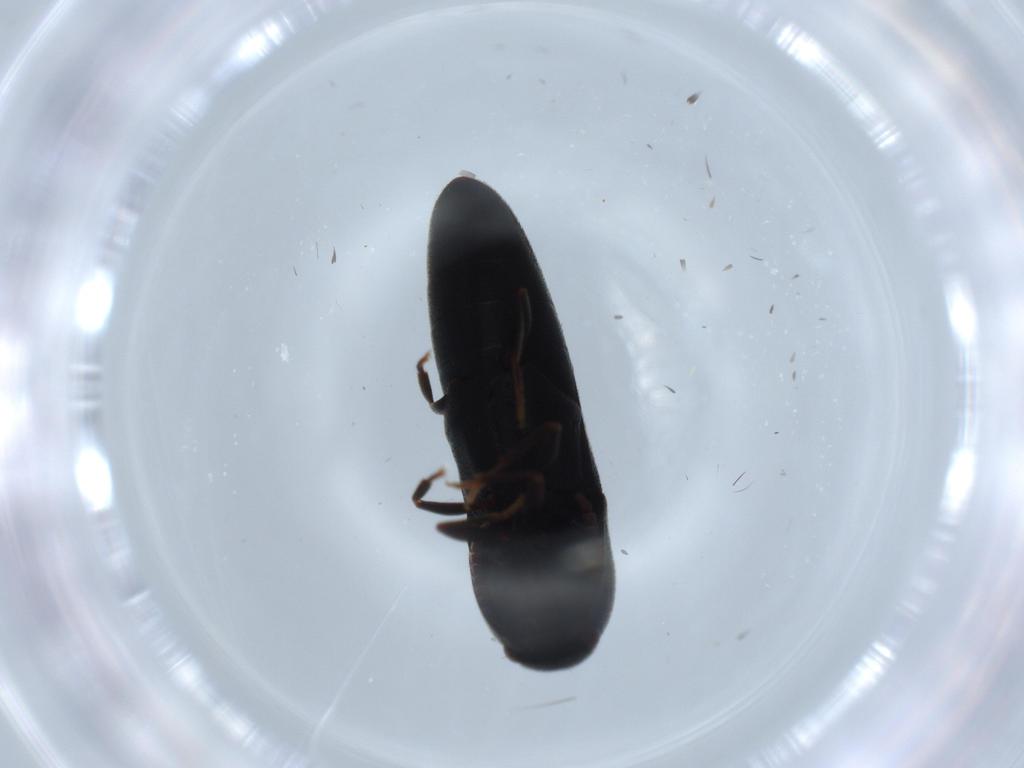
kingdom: Animalia
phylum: Arthropoda
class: Insecta
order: Coleoptera
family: Eucnemidae
